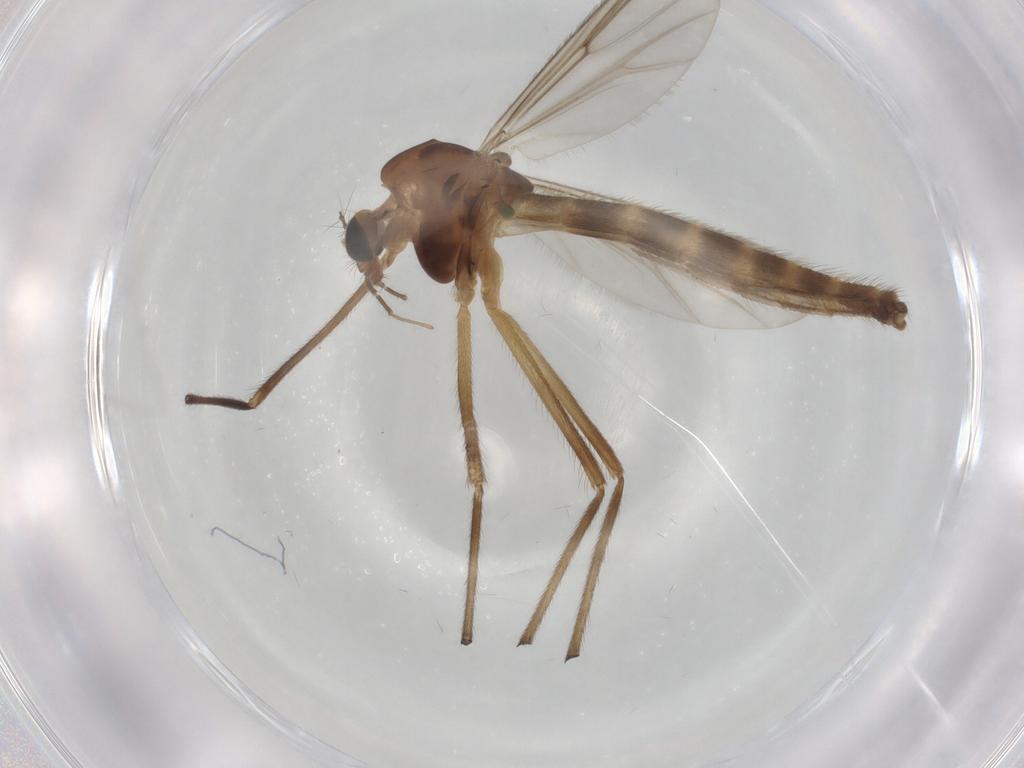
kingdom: Animalia
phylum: Arthropoda
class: Insecta
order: Diptera
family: Chironomidae
